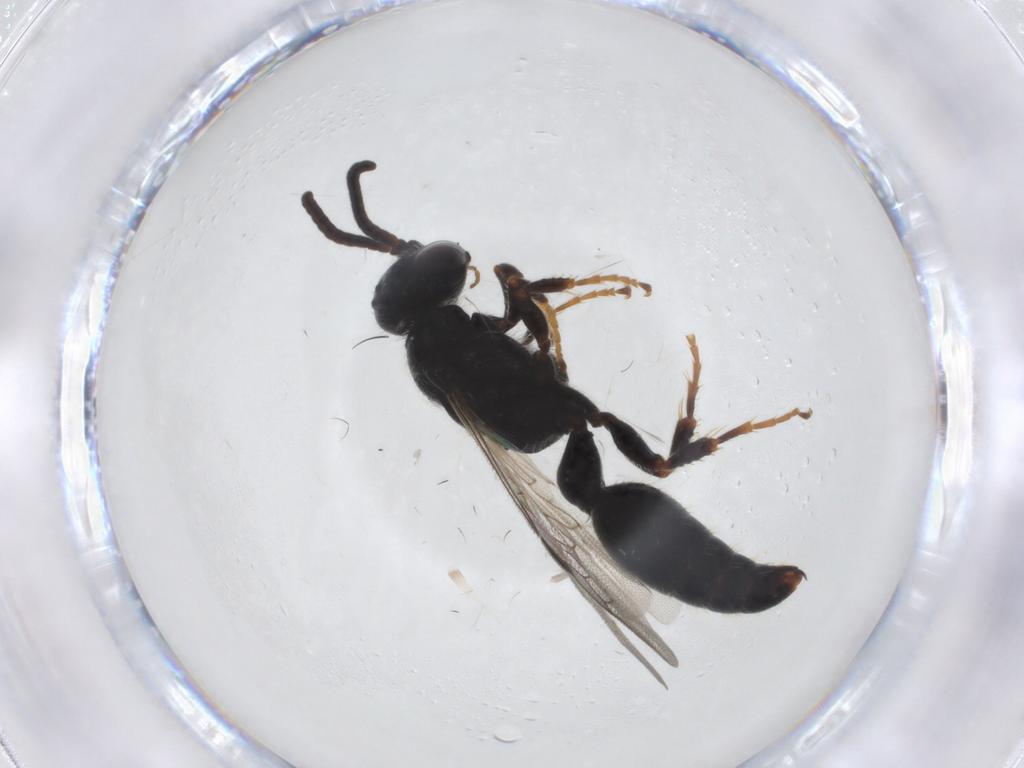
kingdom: Animalia
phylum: Arthropoda
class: Insecta
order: Hymenoptera
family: Tiphiidae
